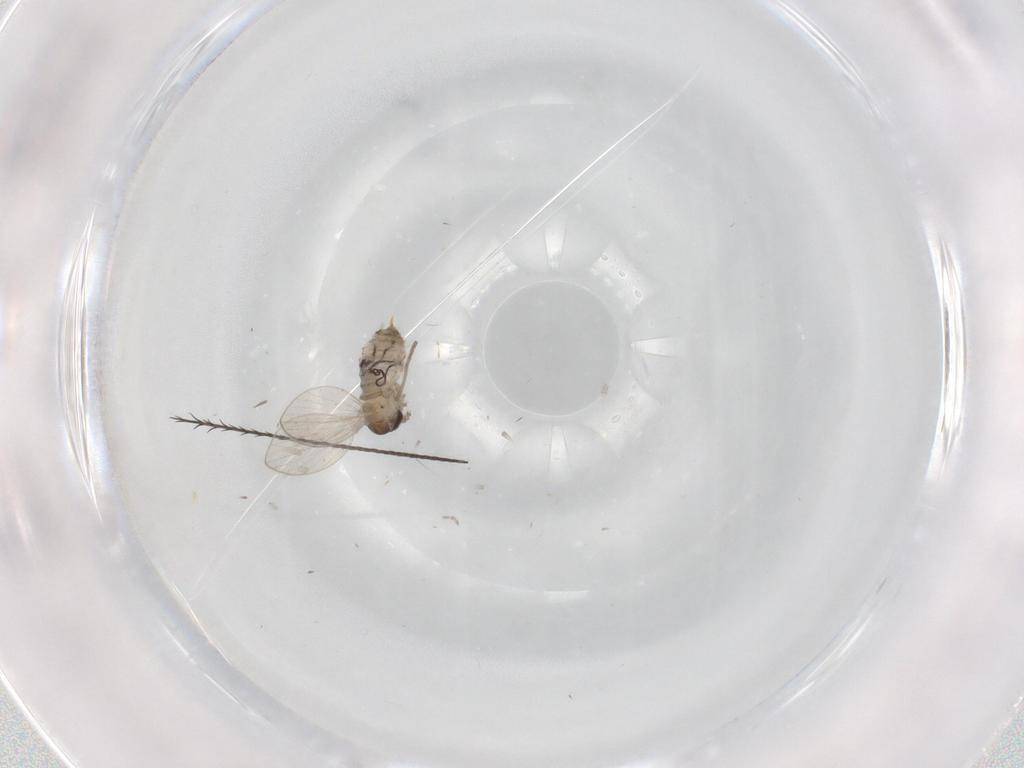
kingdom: Animalia
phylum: Arthropoda
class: Insecta
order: Diptera
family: Psychodidae
